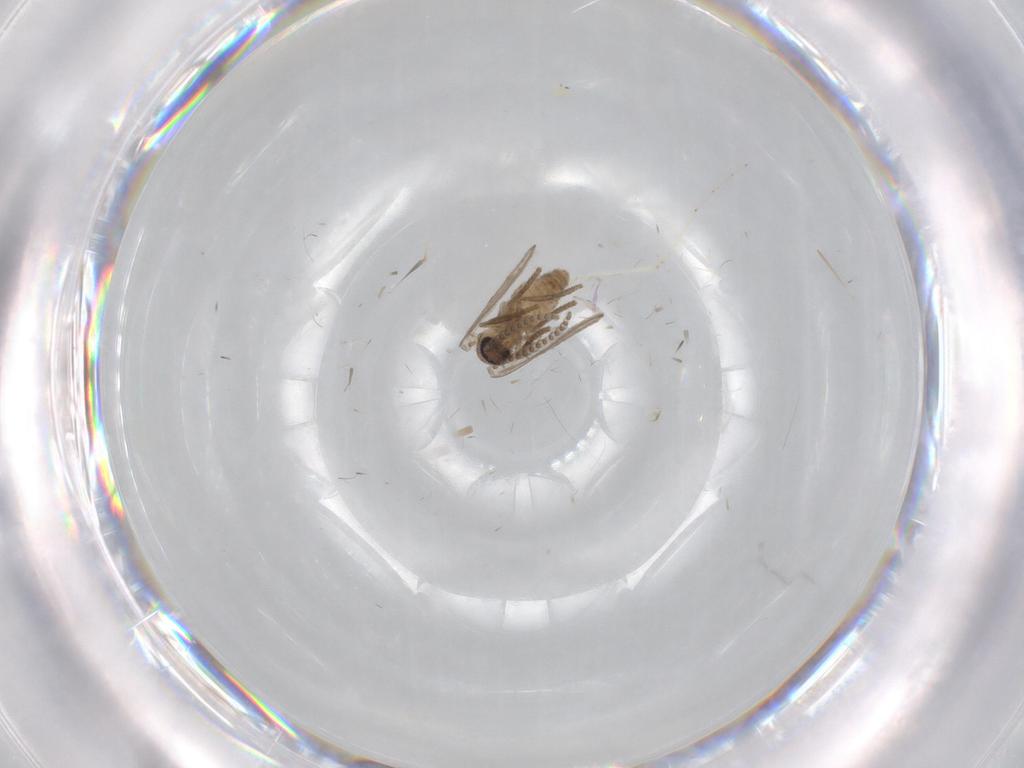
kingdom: Animalia
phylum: Arthropoda
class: Insecta
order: Diptera
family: Psychodidae
